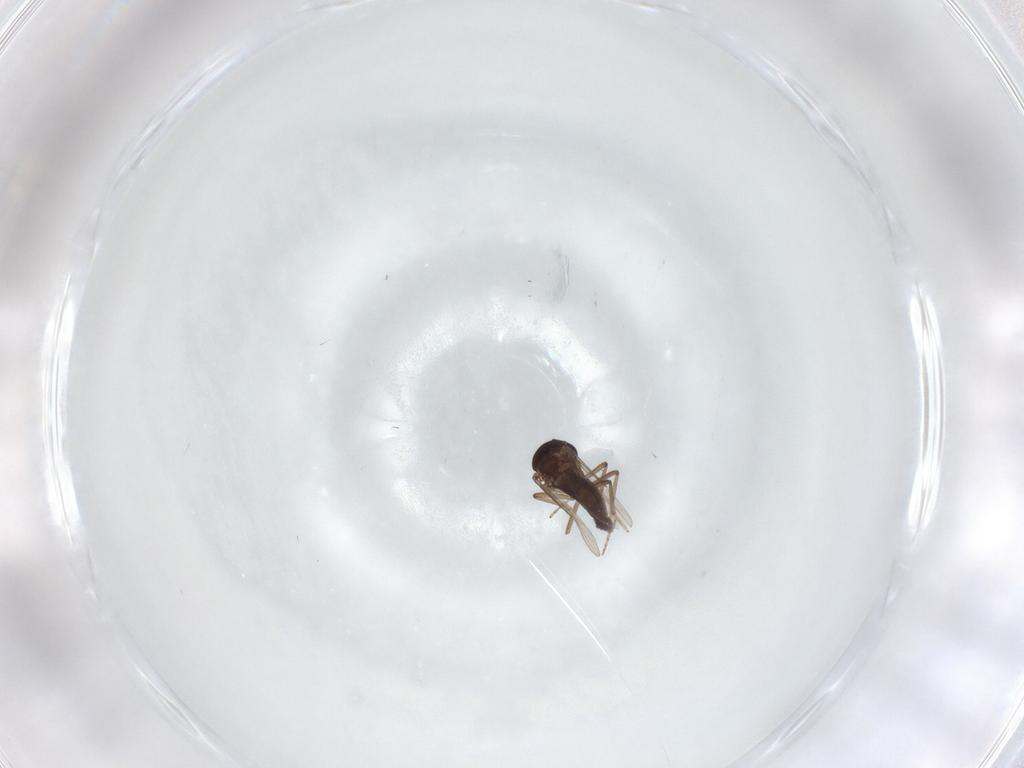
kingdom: Animalia
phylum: Arthropoda
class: Insecta
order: Diptera
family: Ceratopogonidae
